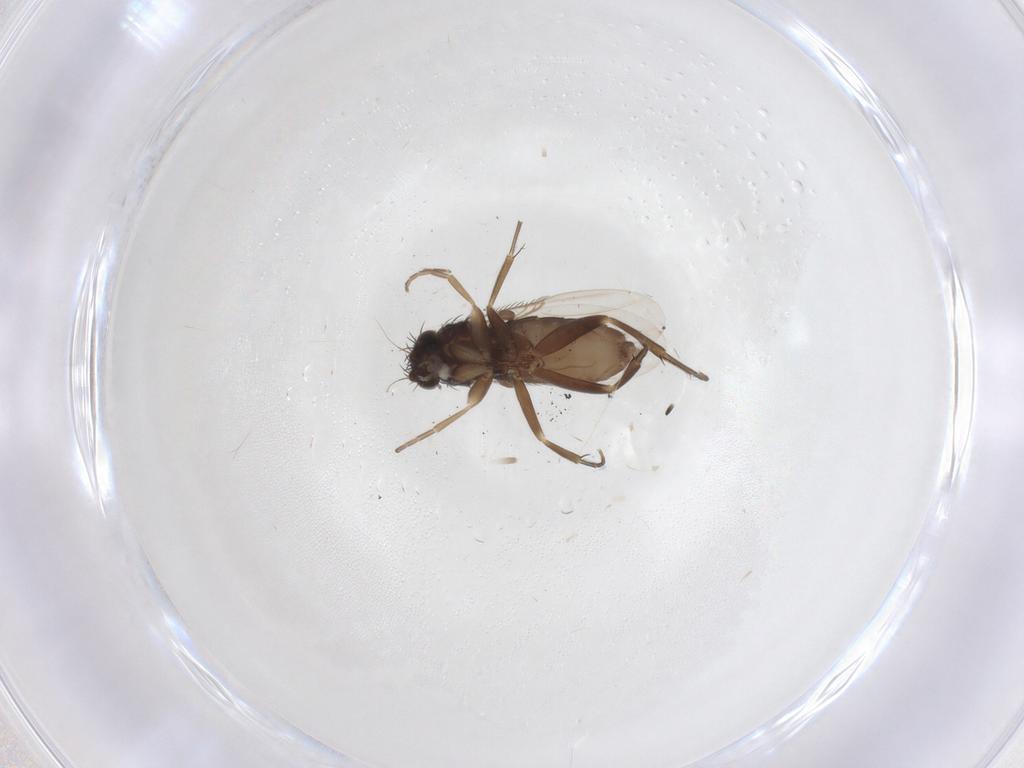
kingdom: Animalia
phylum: Arthropoda
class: Insecta
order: Diptera
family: Phoridae
